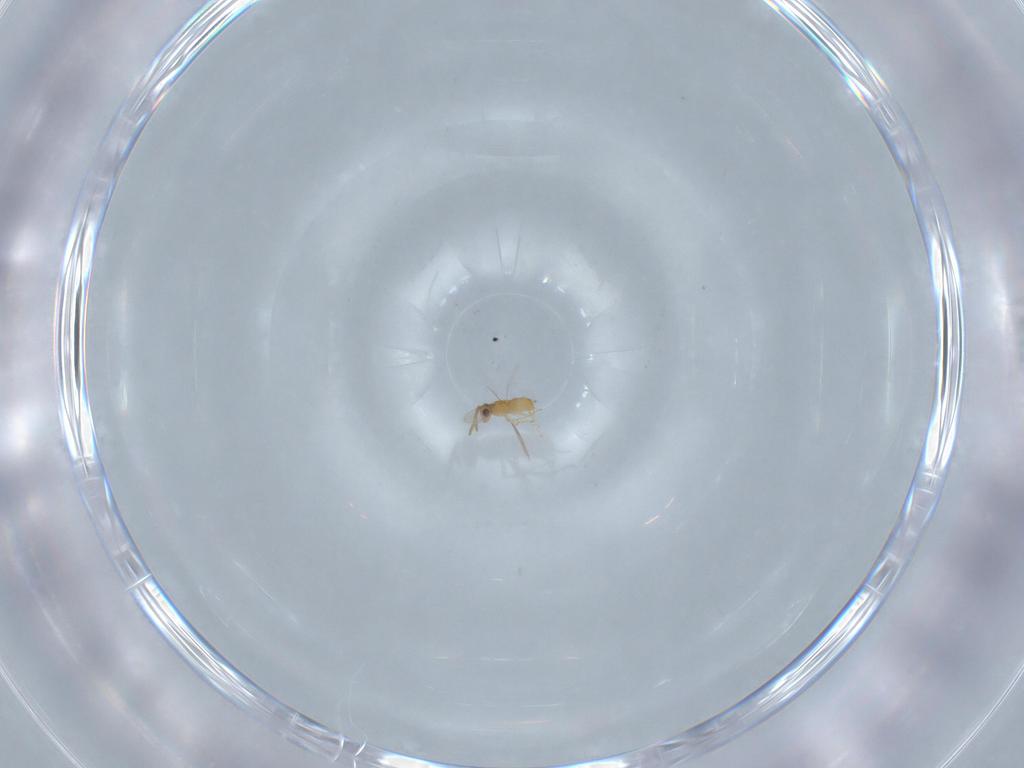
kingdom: Animalia
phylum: Arthropoda
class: Insecta
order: Hymenoptera
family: Aphelinidae
